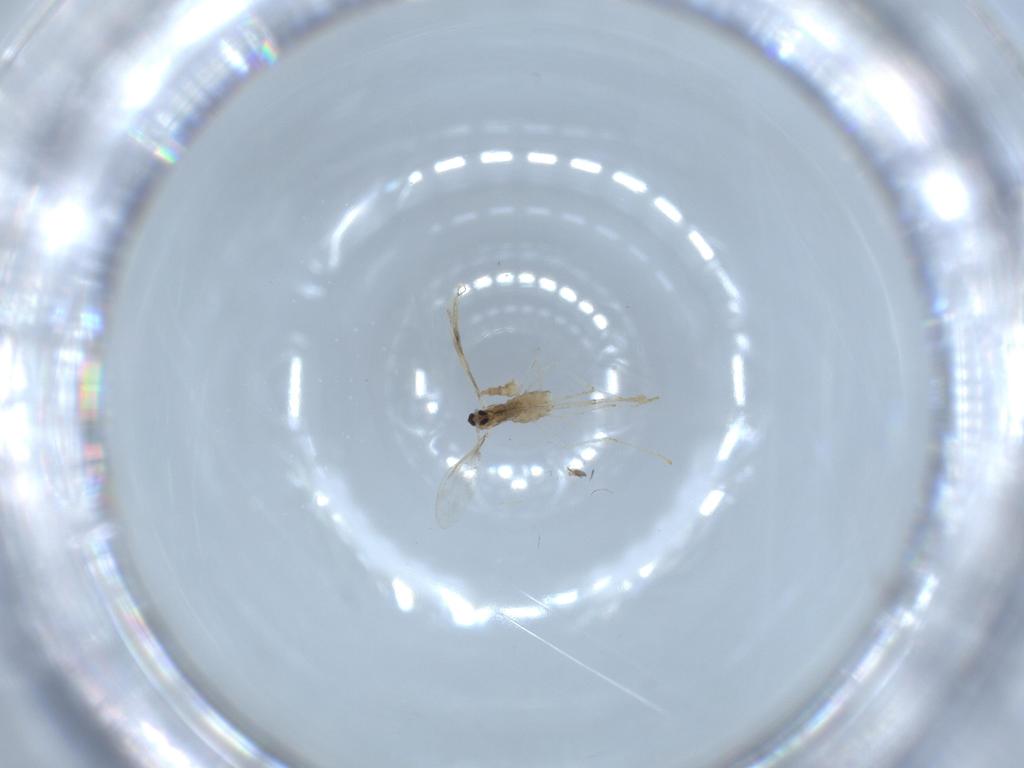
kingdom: Animalia
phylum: Arthropoda
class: Insecta
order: Diptera
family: Cecidomyiidae
